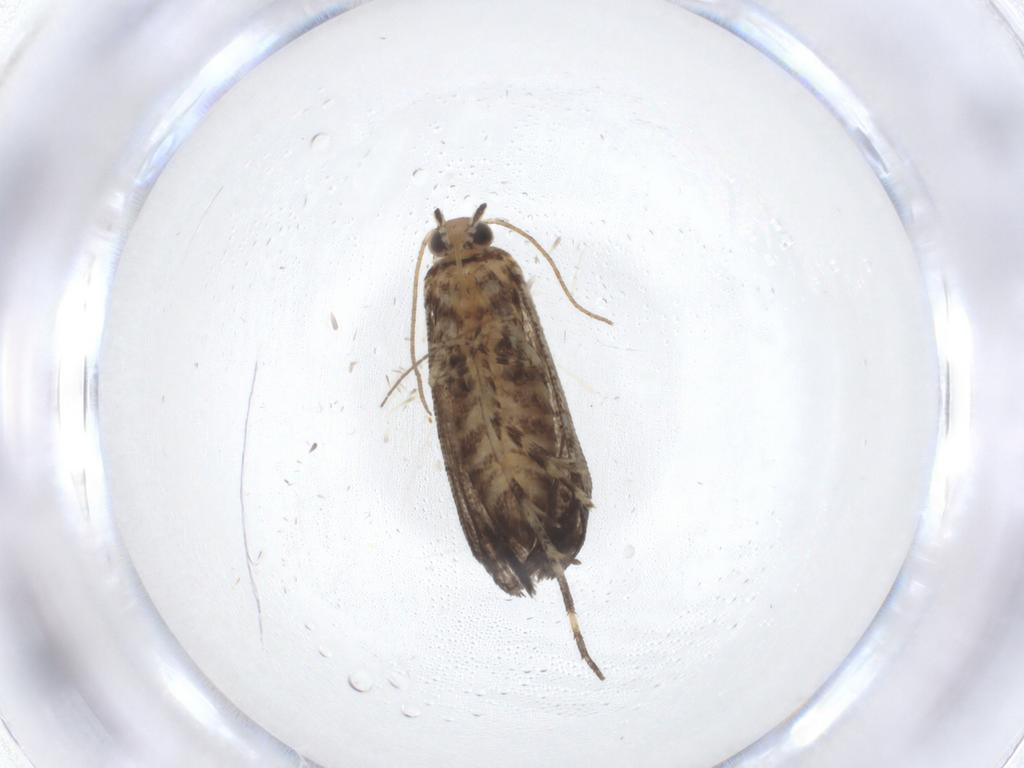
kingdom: Animalia
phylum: Arthropoda
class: Insecta
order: Lepidoptera
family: Geometridae
